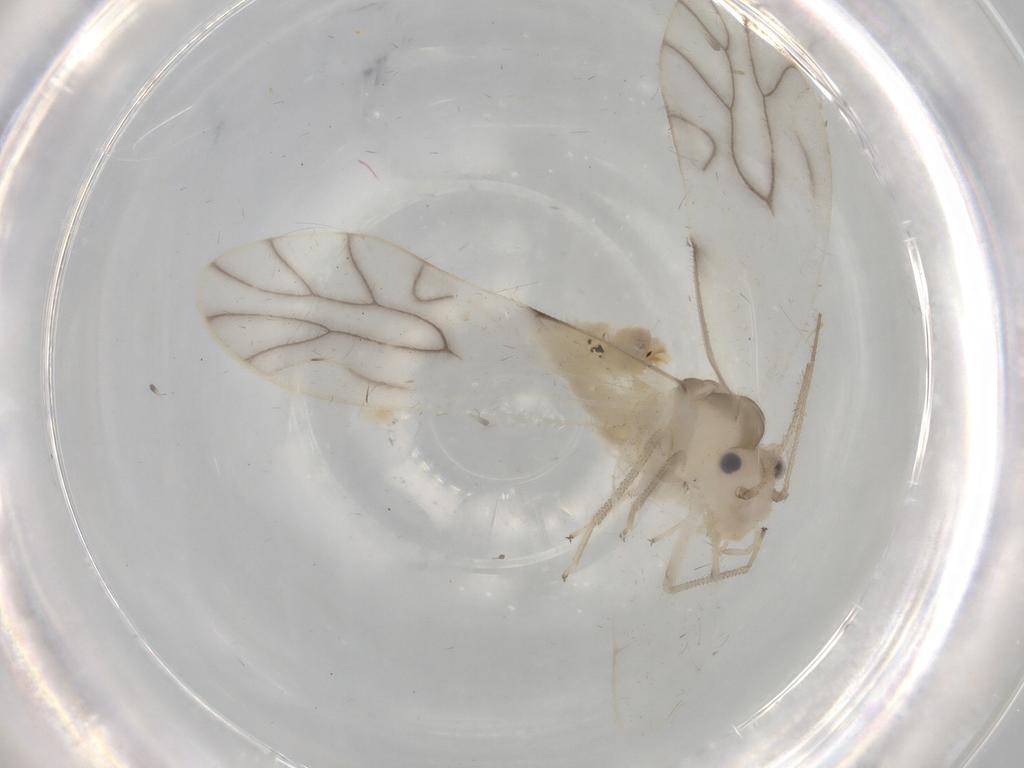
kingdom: Animalia
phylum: Arthropoda
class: Insecta
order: Psocodea
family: Caeciliusidae
